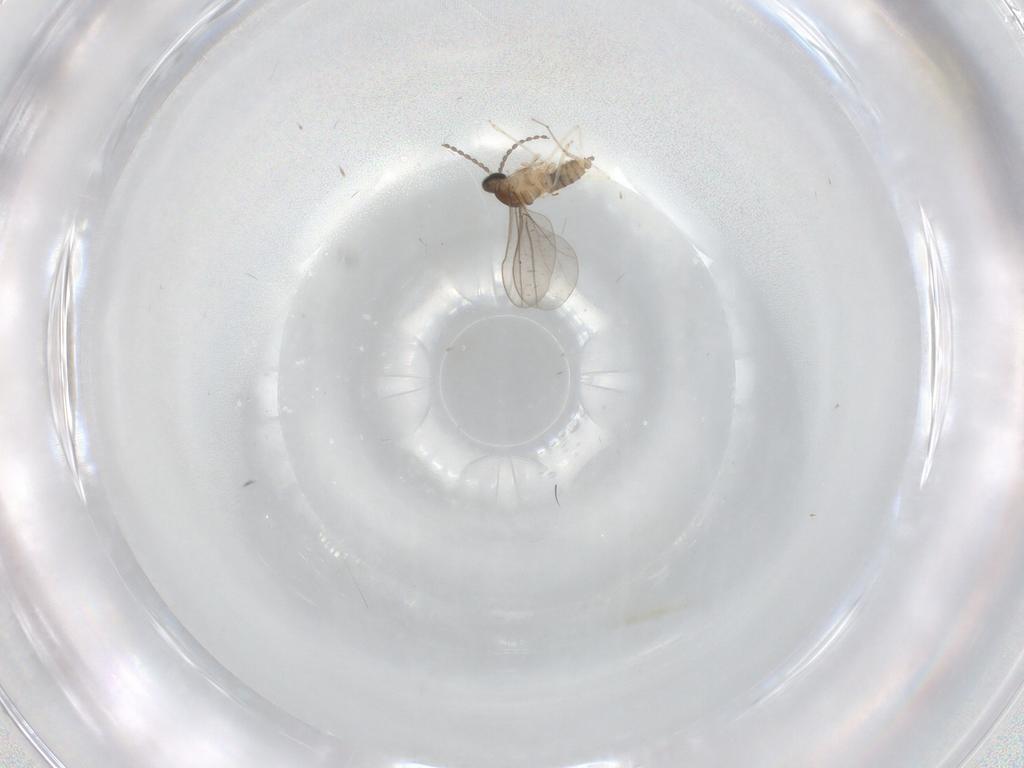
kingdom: Animalia
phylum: Arthropoda
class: Insecta
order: Diptera
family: Cecidomyiidae
